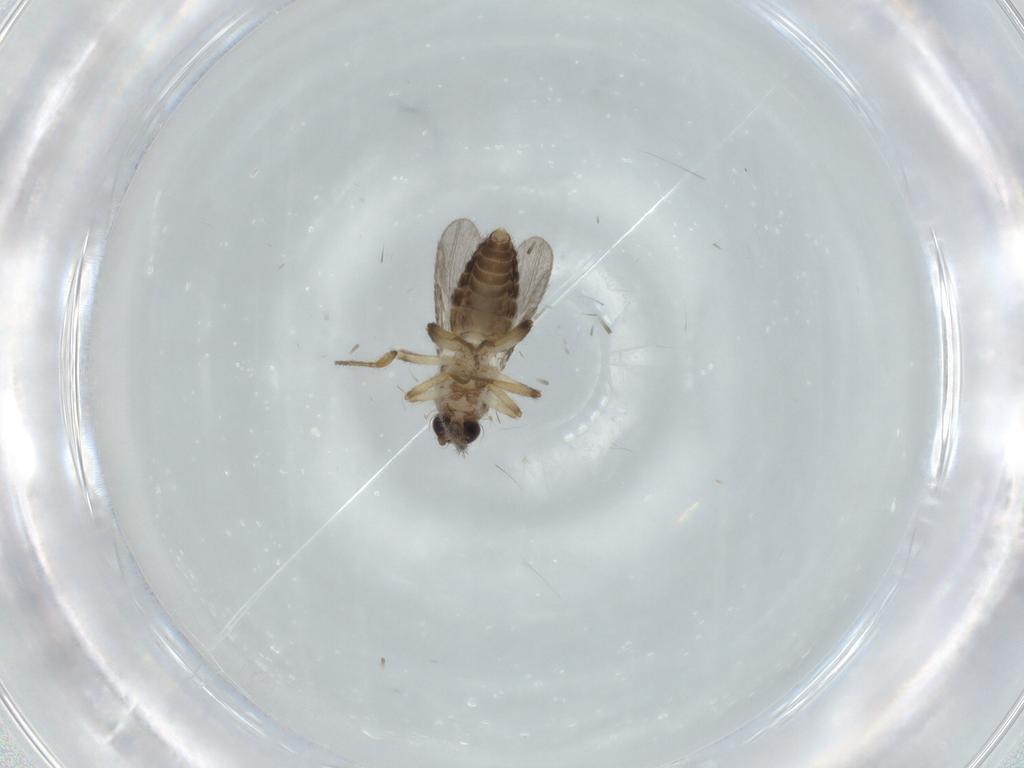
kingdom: Animalia
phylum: Arthropoda
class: Insecta
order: Diptera
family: Ceratopogonidae
